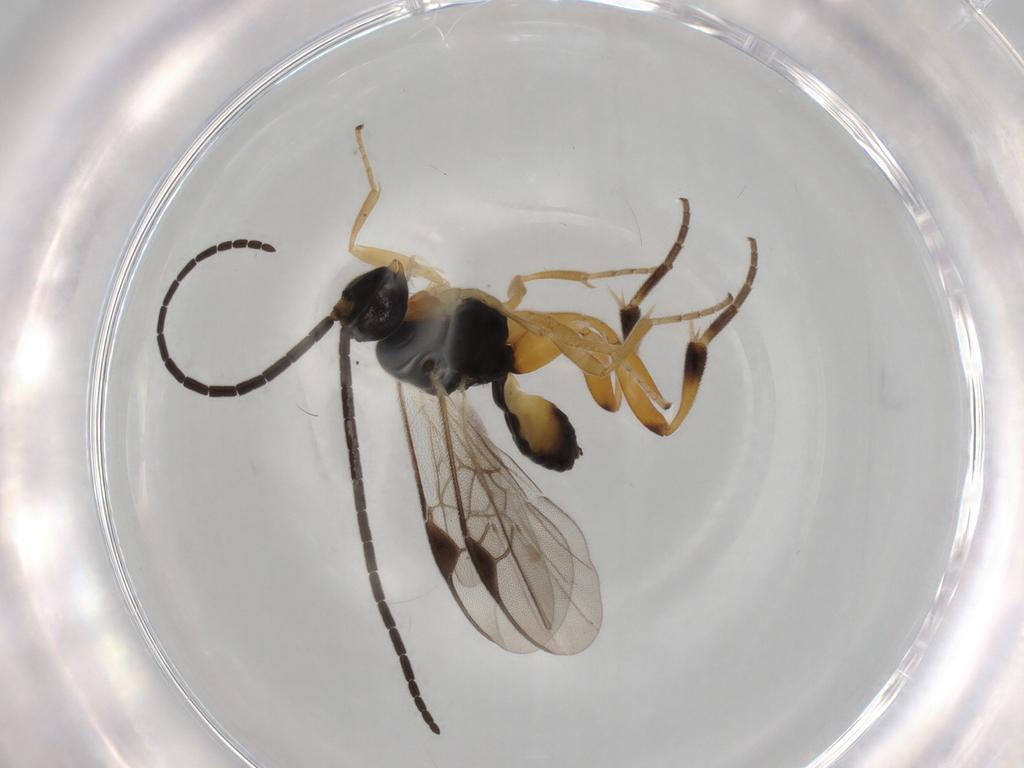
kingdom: Animalia
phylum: Arthropoda
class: Insecta
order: Hymenoptera
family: Braconidae
